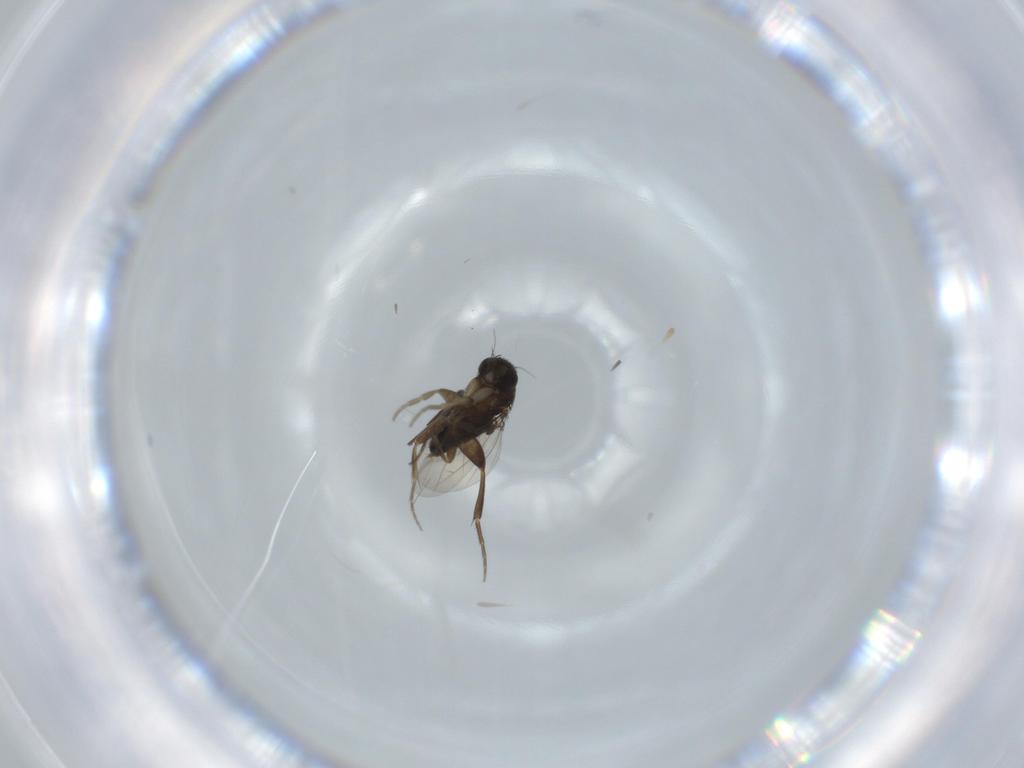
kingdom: Animalia
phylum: Arthropoda
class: Insecta
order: Diptera
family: Phoridae
